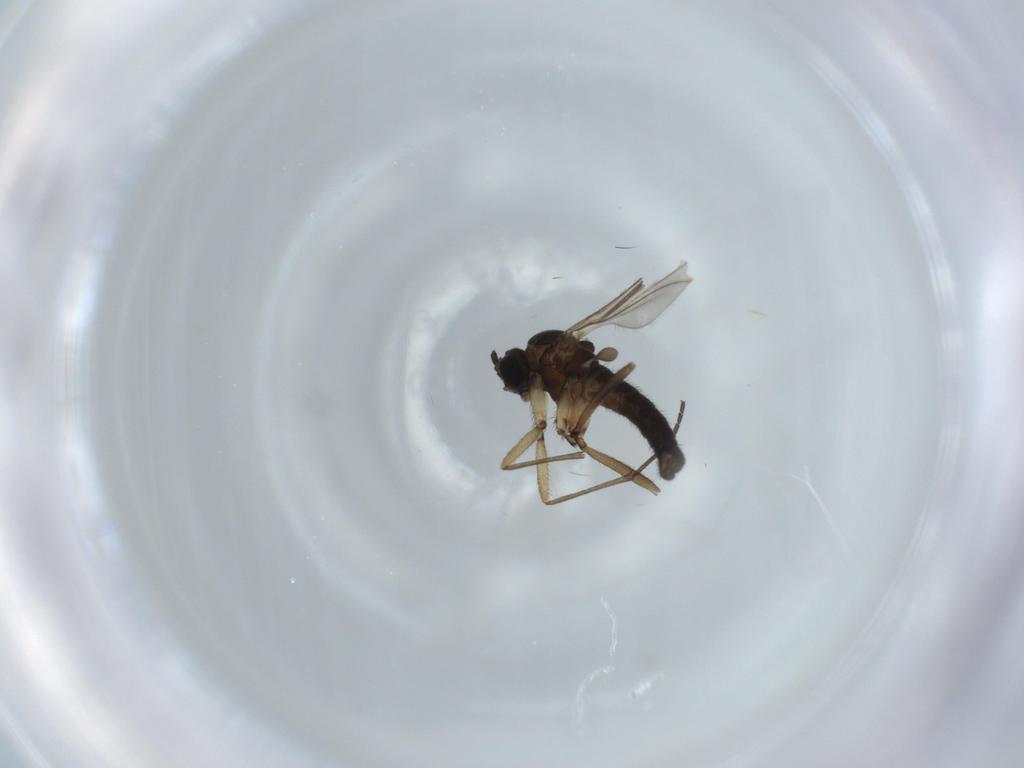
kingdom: Animalia
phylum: Arthropoda
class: Insecta
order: Diptera
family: Sciaridae
